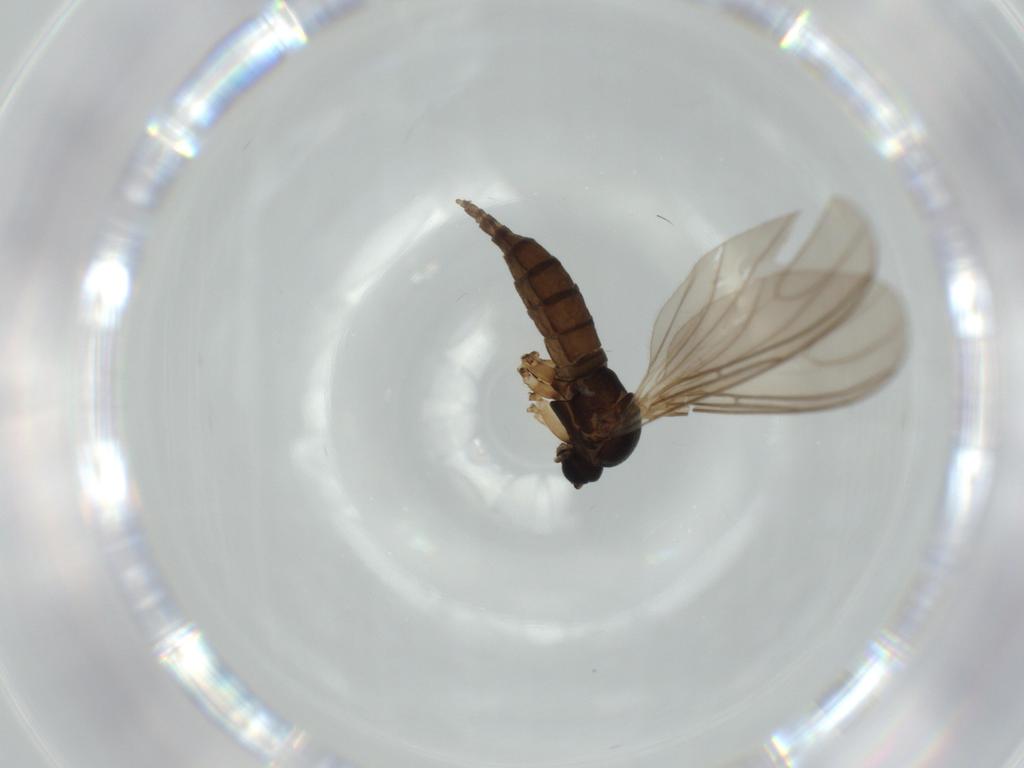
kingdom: Animalia
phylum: Arthropoda
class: Insecta
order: Diptera
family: Sciaridae
